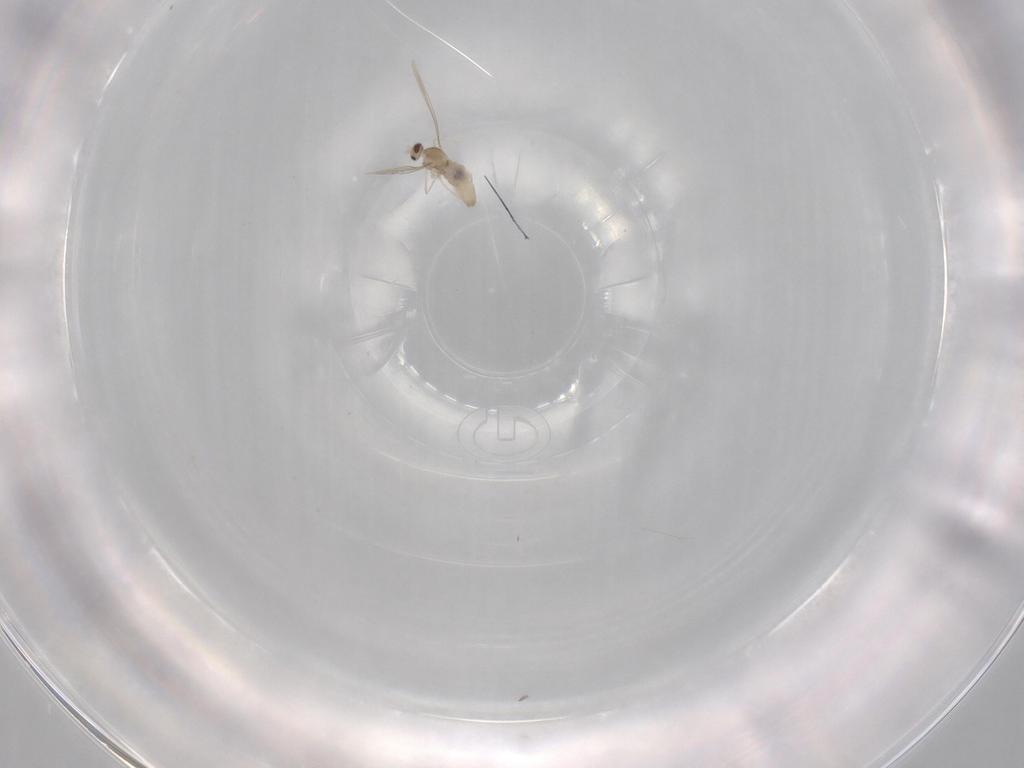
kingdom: Animalia
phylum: Arthropoda
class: Insecta
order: Diptera
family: Cecidomyiidae
